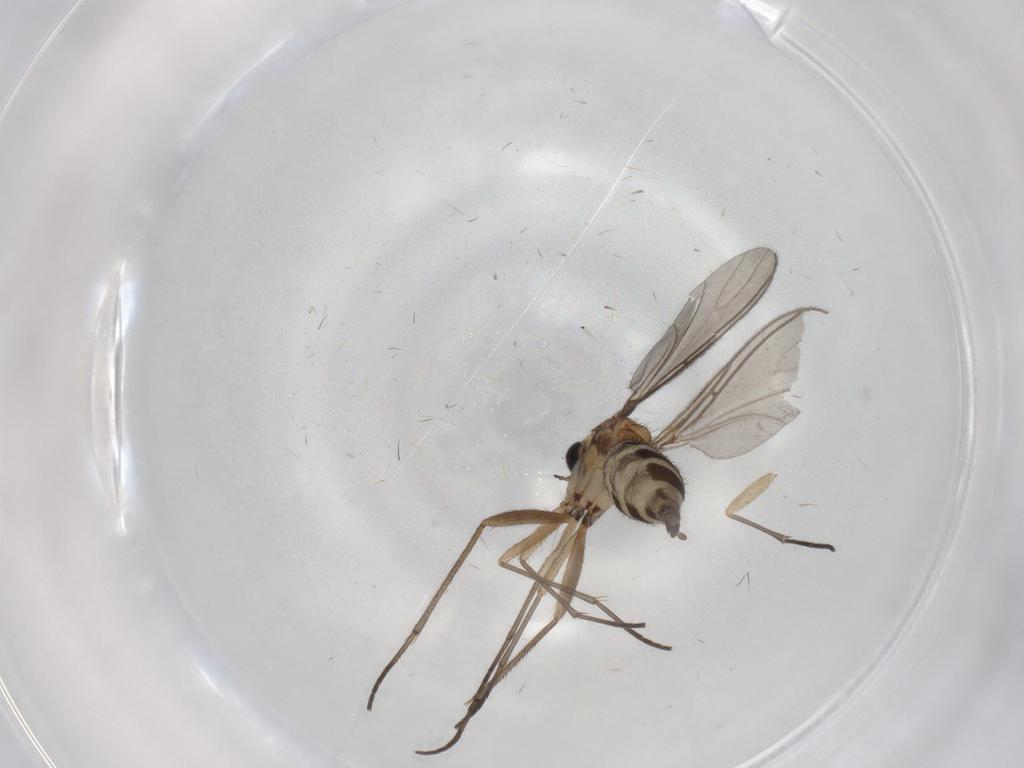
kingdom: Animalia
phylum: Arthropoda
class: Insecta
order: Diptera
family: Sciaridae
